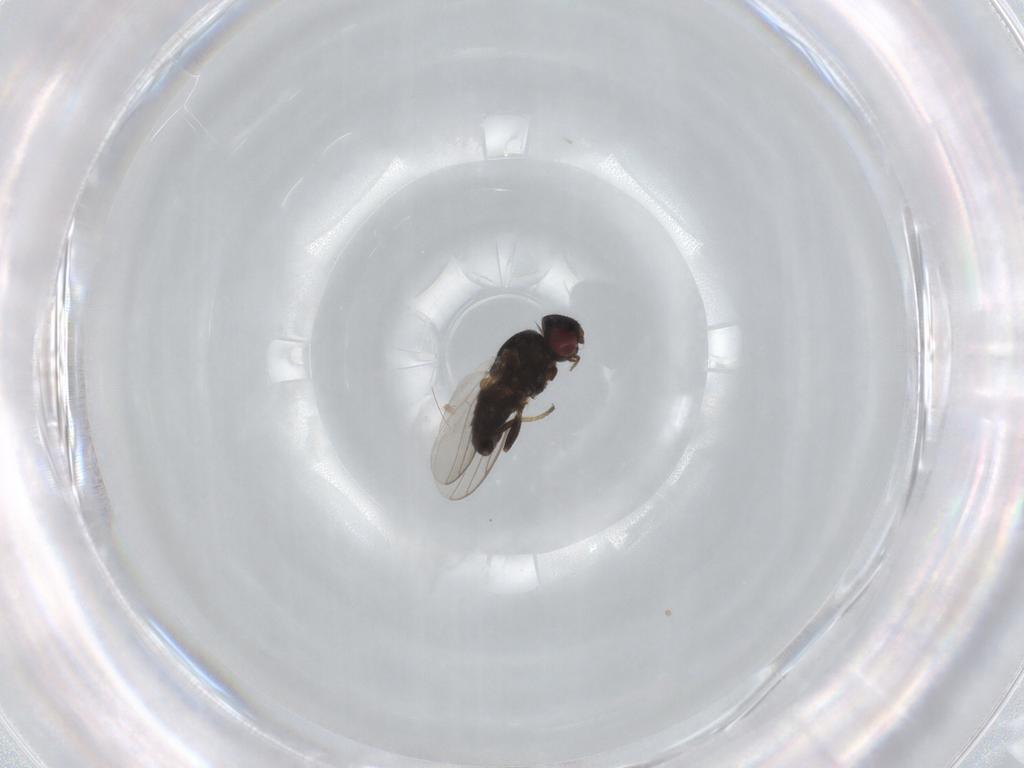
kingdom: Animalia
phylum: Arthropoda
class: Insecta
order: Diptera
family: Chloropidae
